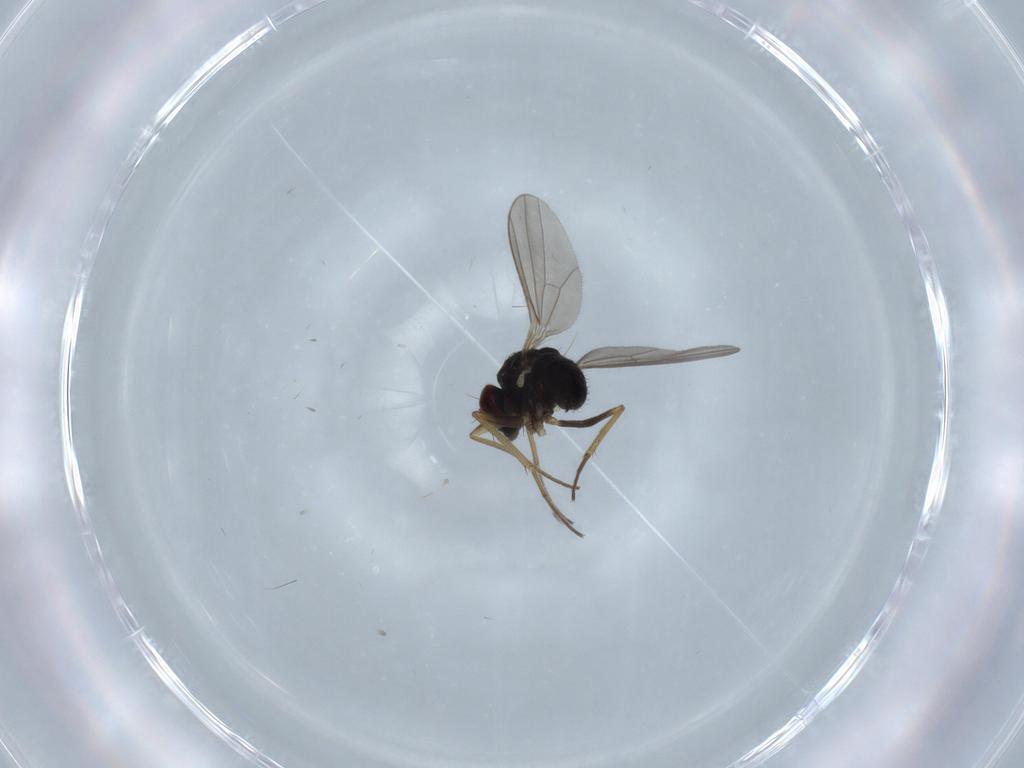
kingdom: Animalia
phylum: Arthropoda
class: Insecta
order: Diptera
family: Dolichopodidae
